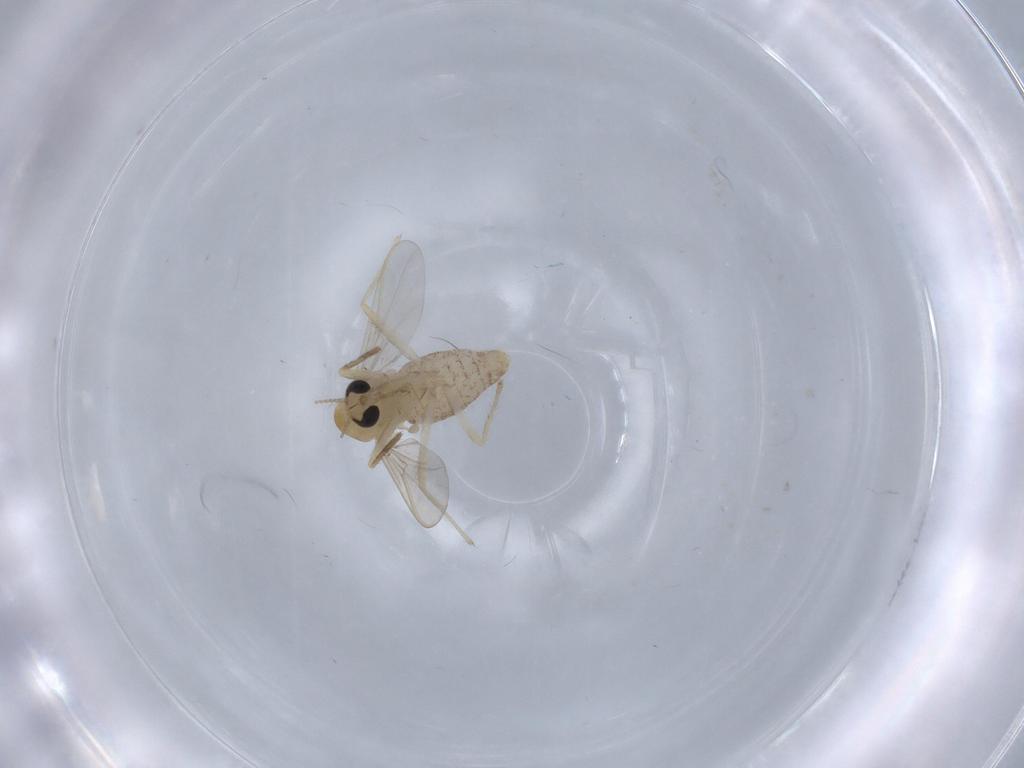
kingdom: Animalia
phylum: Arthropoda
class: Insecta
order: Diptera
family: Chironomidae
